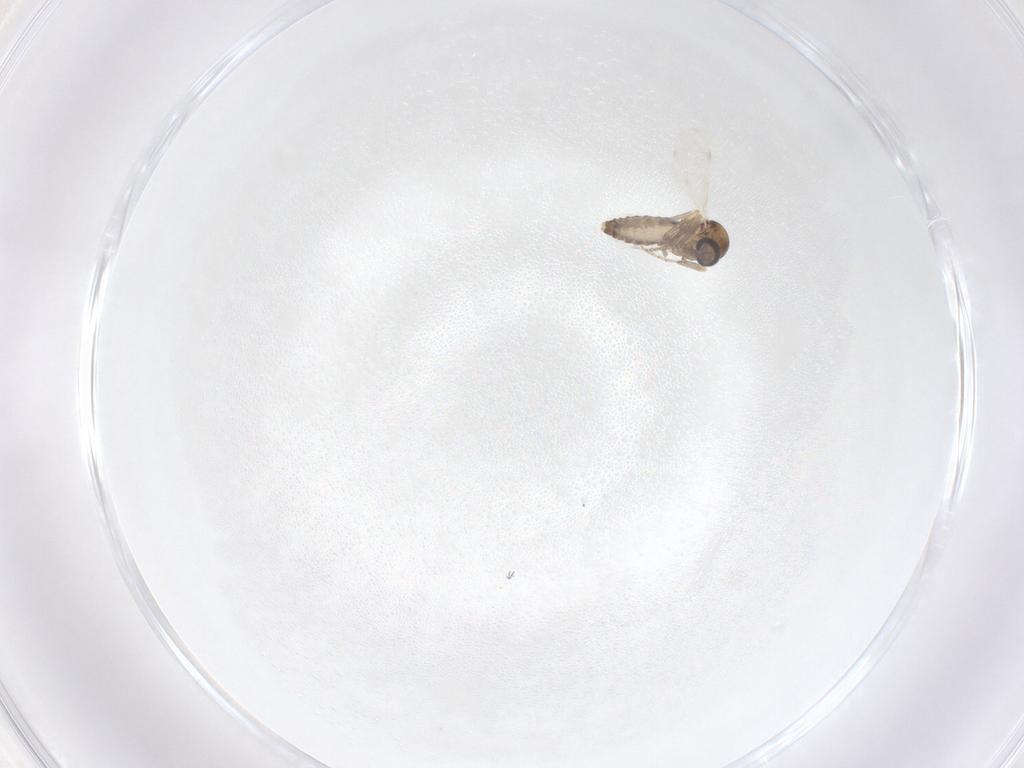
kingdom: Animalia
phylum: Arthropoda
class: Insecta
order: Diptera
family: Ceratopogonidae
